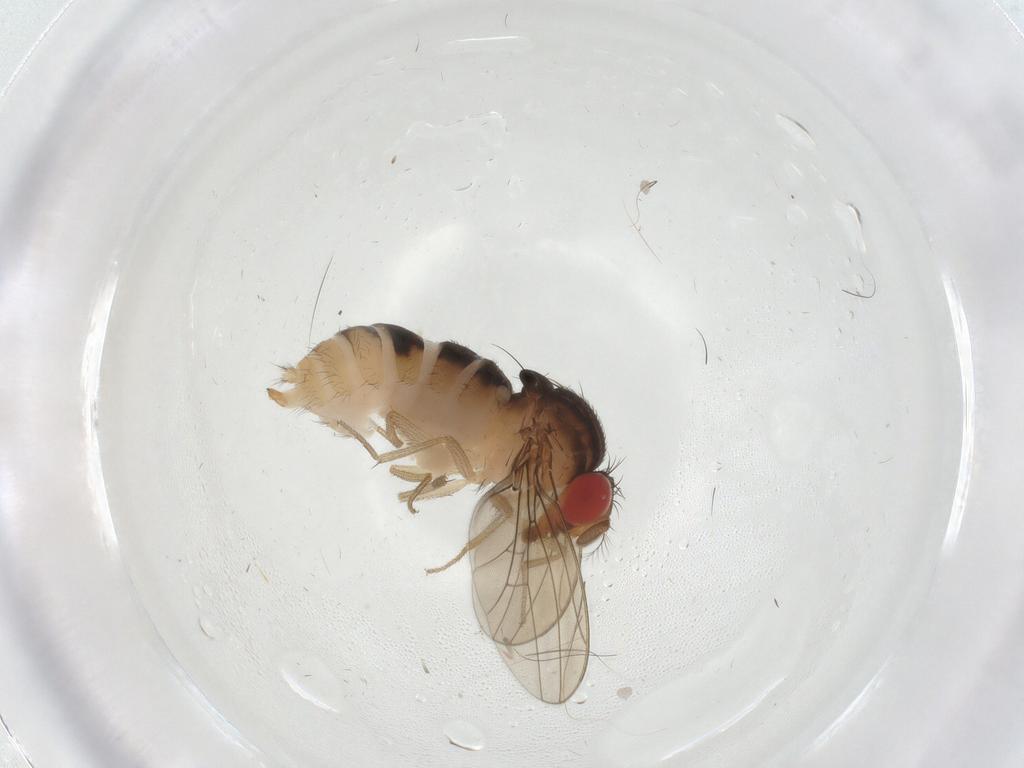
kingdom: Animalia
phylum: Arthropoda
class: Insecta
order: Diptera
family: Drosophilidae
